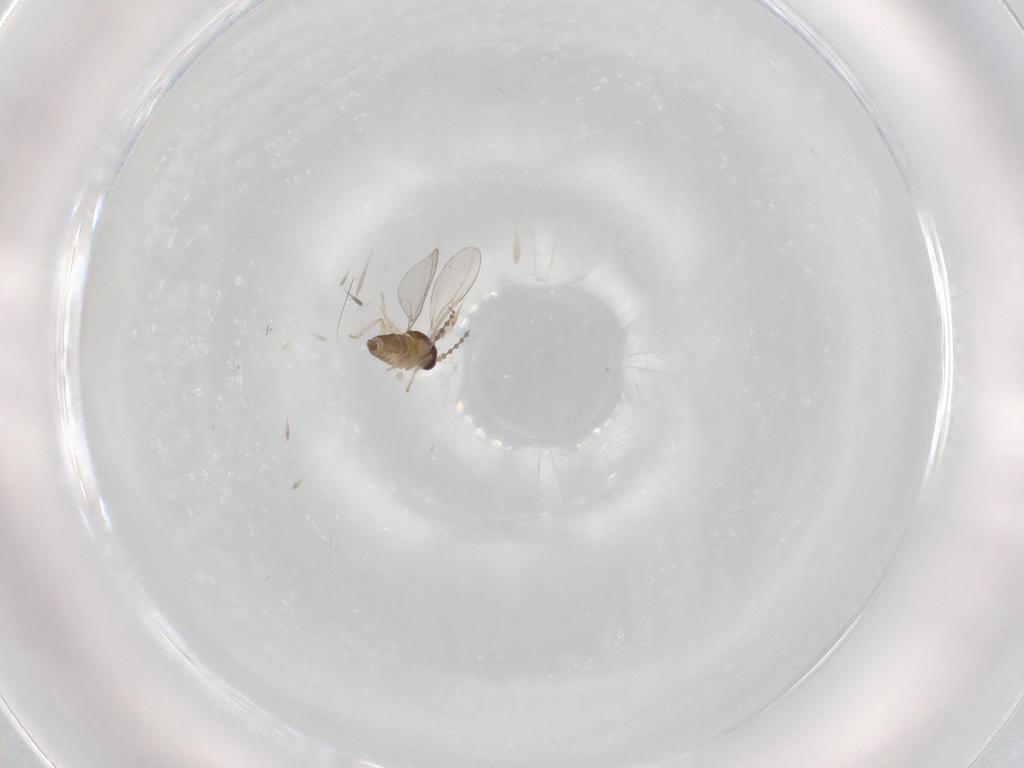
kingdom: Animalia
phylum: Arthropoda
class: Insecta
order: Diptera
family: Cecidomyiidae
